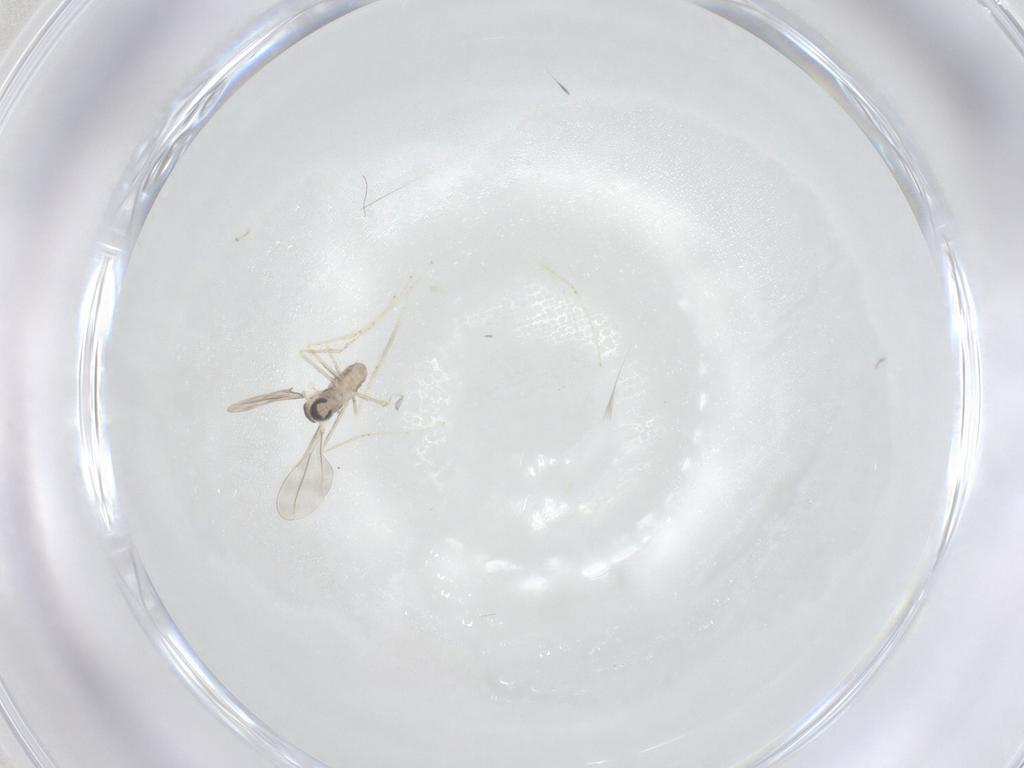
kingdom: Animalia
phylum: Arthropoda
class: Insecta
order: Diptera
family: Cecidomyiidae
